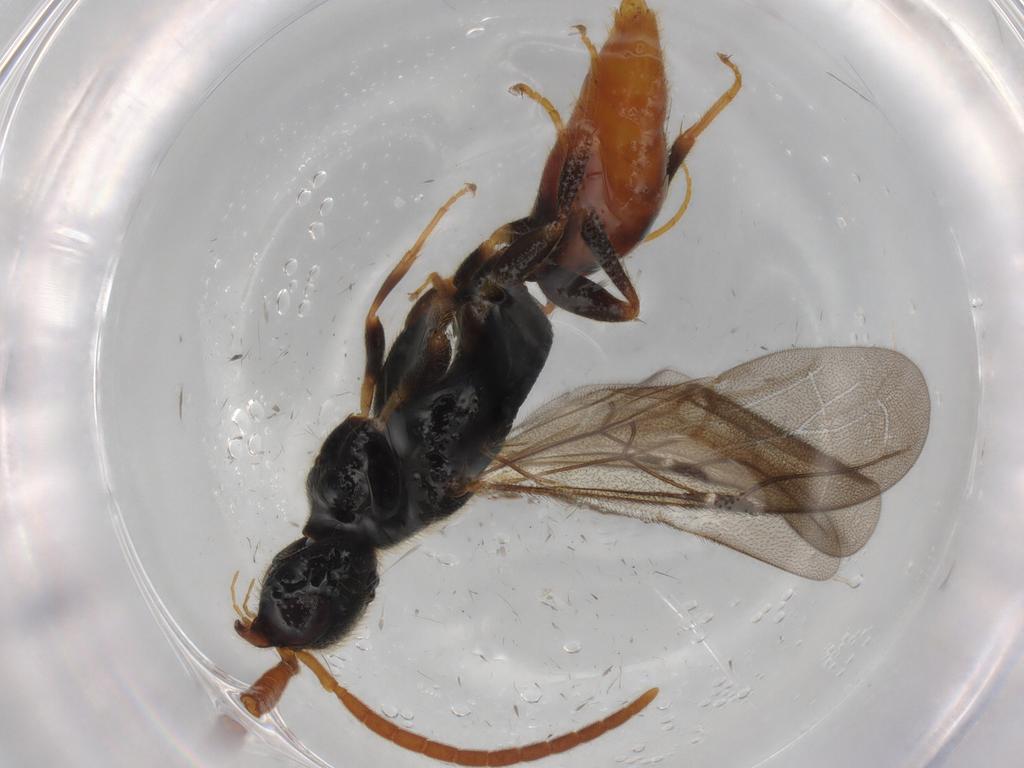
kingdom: Animalia
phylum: Arthropoda
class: Insecta
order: Hymenoptera
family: Bethylidae
